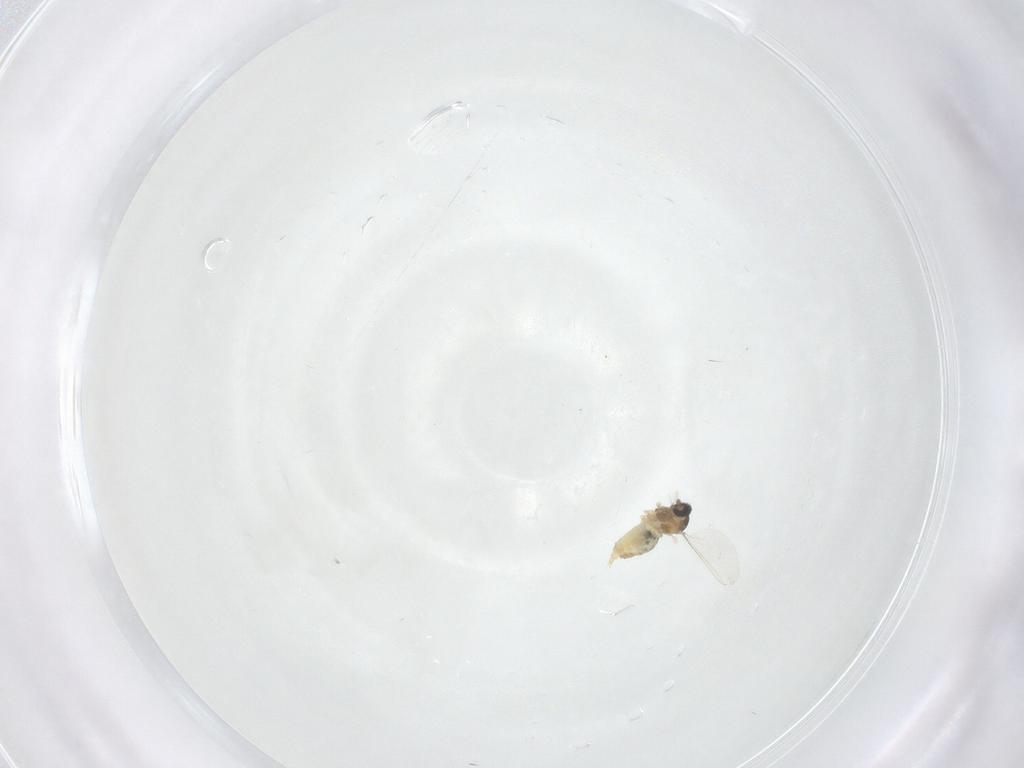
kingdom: Animalia
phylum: Arthropoda
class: Insecta
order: Diptera
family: Cecidomyiidae
